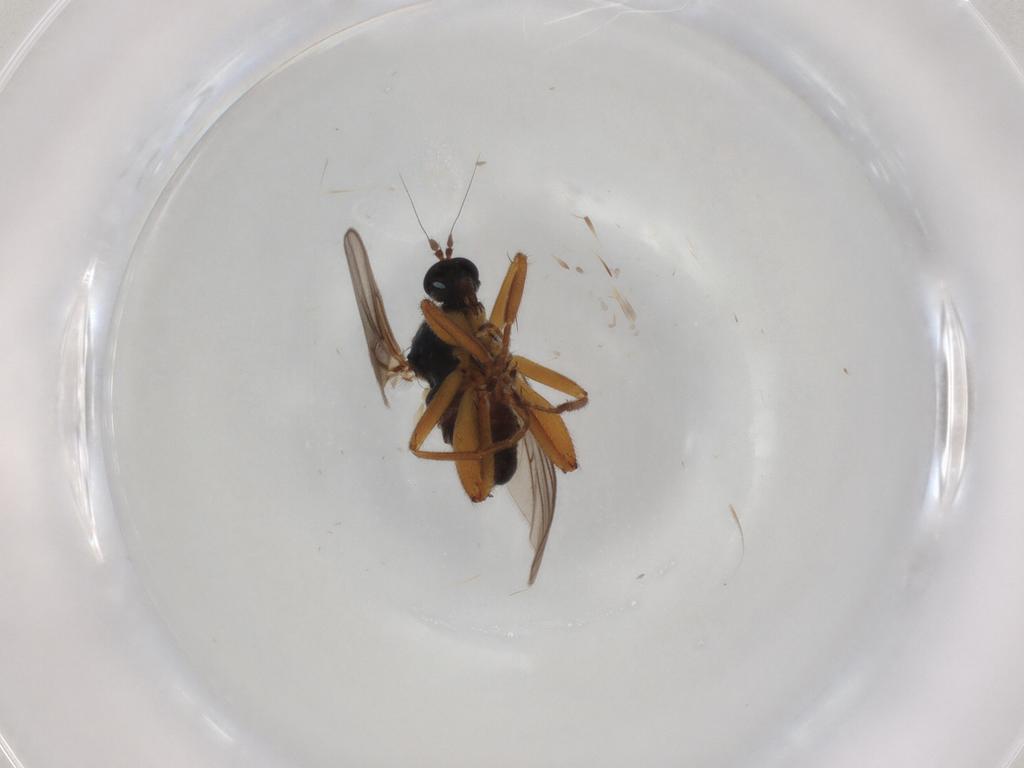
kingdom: Animalia
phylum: Arthropoda
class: Insecta
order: Diptera
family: Hybotidae
